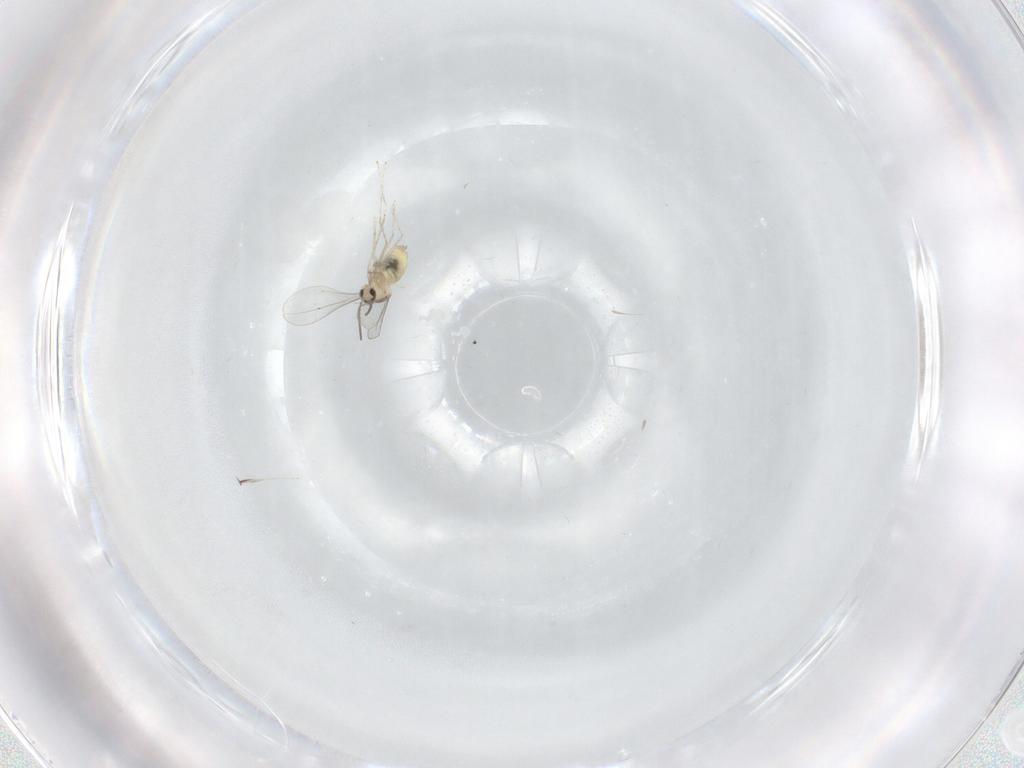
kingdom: Animalia
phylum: Arthropoda
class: Insecta
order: Diptera
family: Cecidomyiidae
